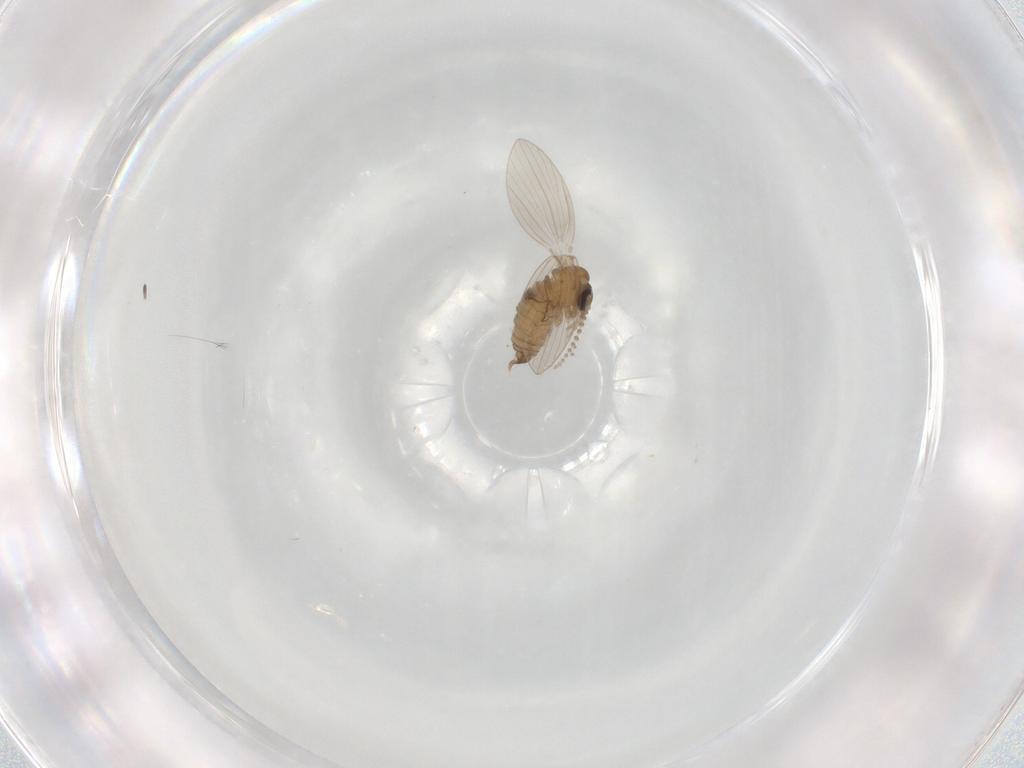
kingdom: Animalia
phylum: Arthropoda
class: Insecta
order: Diptera
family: Psychodidae
